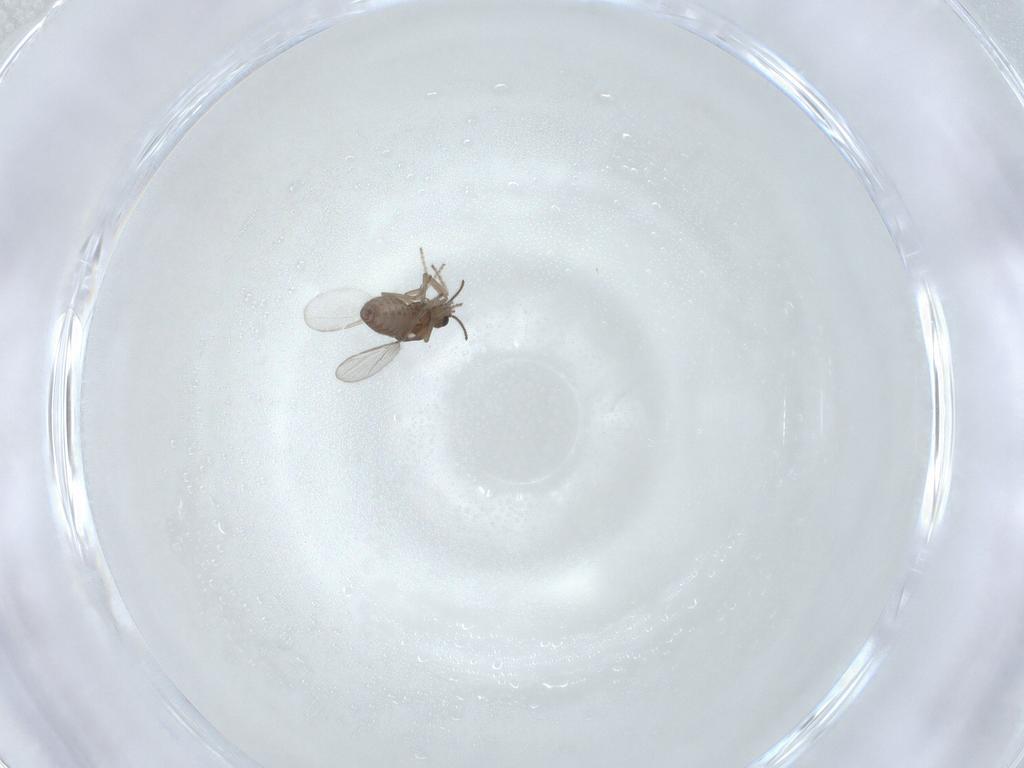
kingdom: Animalia
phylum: Arthropoda
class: Insecta
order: Diptera
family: Ceratopogonidae
